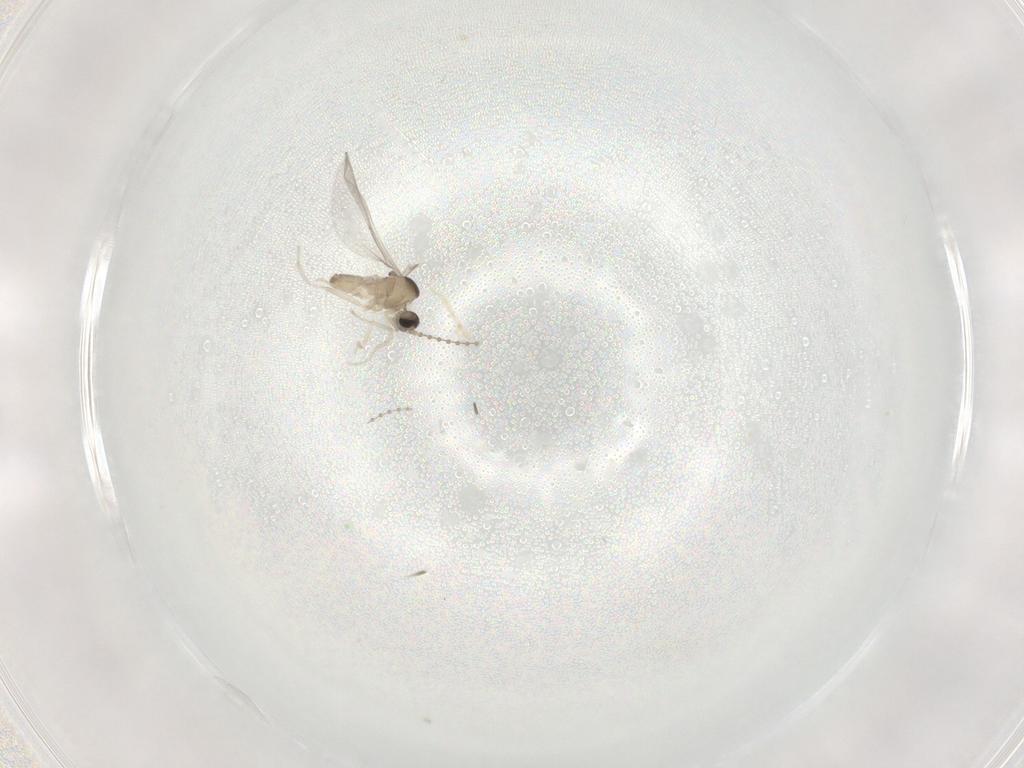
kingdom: Animalia
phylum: Arthropoda
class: Insecta
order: Diptera
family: Cecidomyiidae
